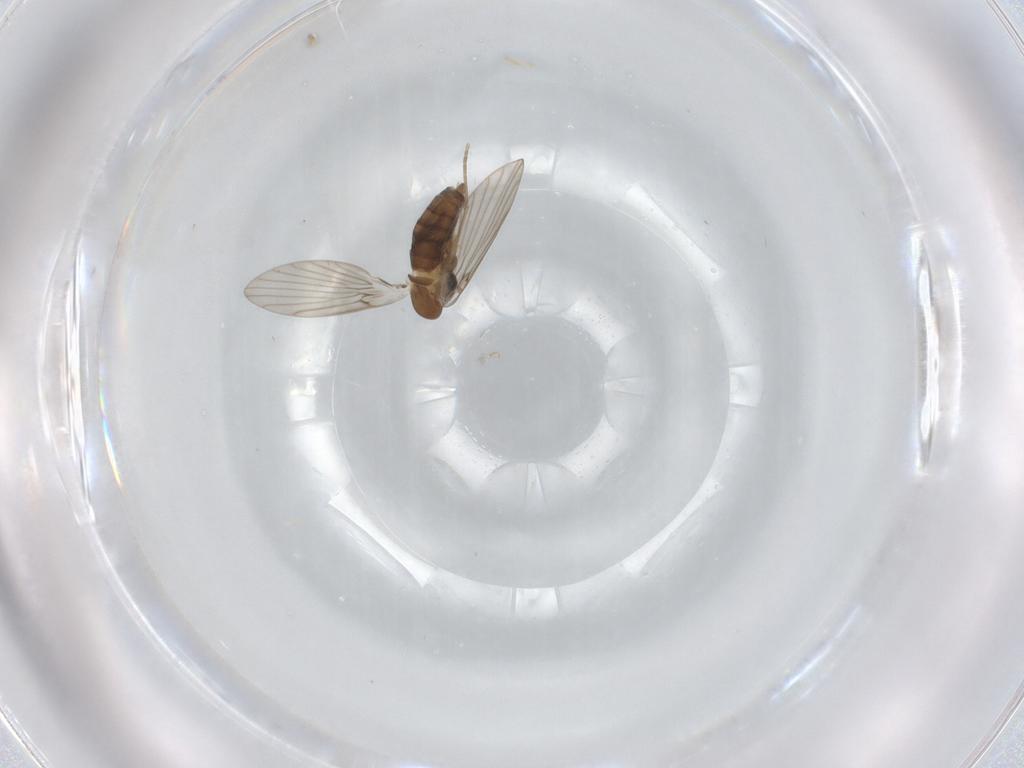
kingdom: Animalia
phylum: Arthropoda
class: Insecta
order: Diptera
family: Psychodidae
